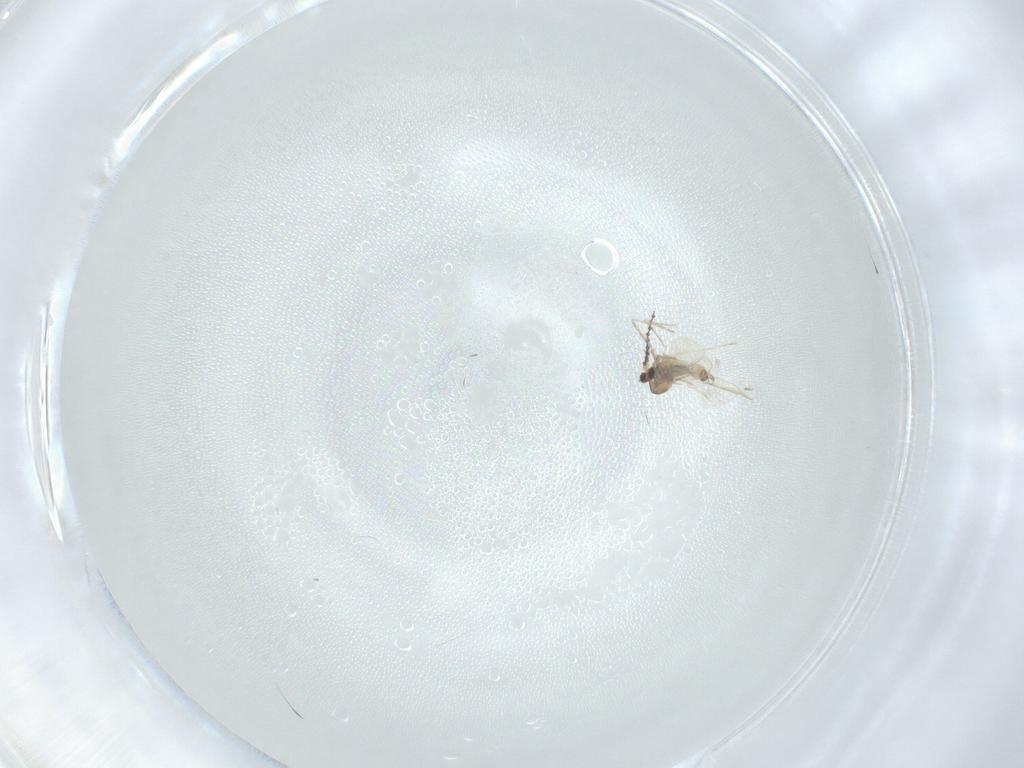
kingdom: Animalia
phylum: Arthropoda
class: Insecta
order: Diptera
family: Cecidomyiidae
